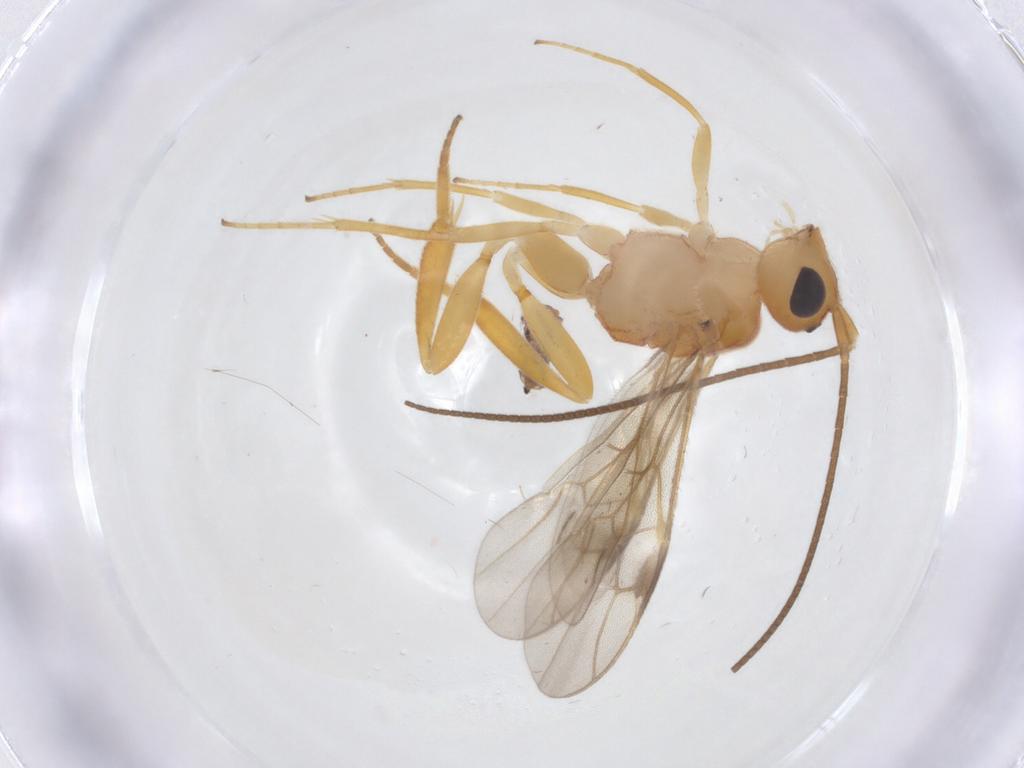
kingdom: Animalia
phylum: Arthropoda
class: Insecta
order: Hymenoptera
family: Braconidae
